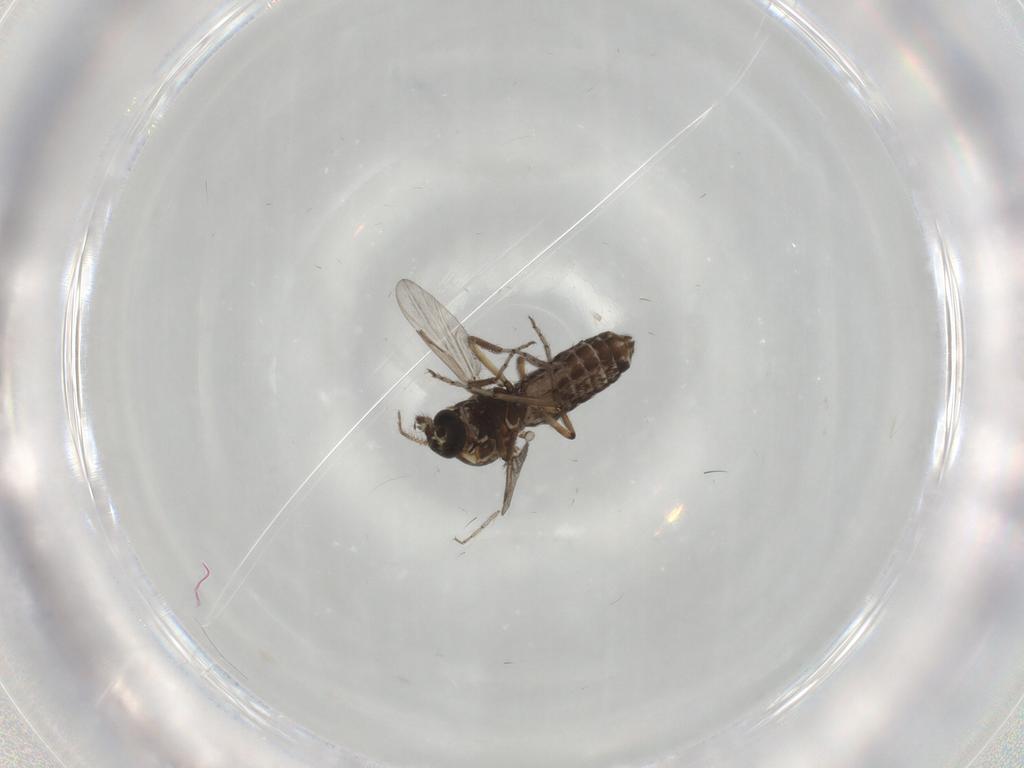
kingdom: Animalia
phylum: Arthropoda
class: Insecta
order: Diptera
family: Ceratopogonidae
